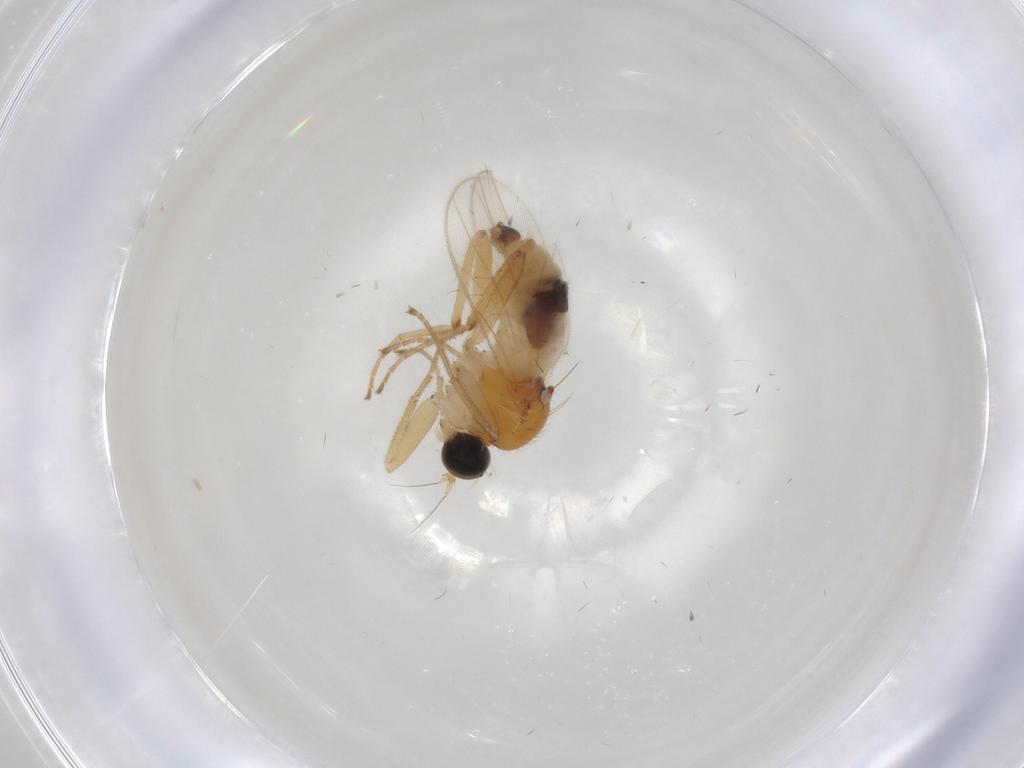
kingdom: Animalia
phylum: Arthropoda
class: Insecta
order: Diptera
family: Hybotidae
